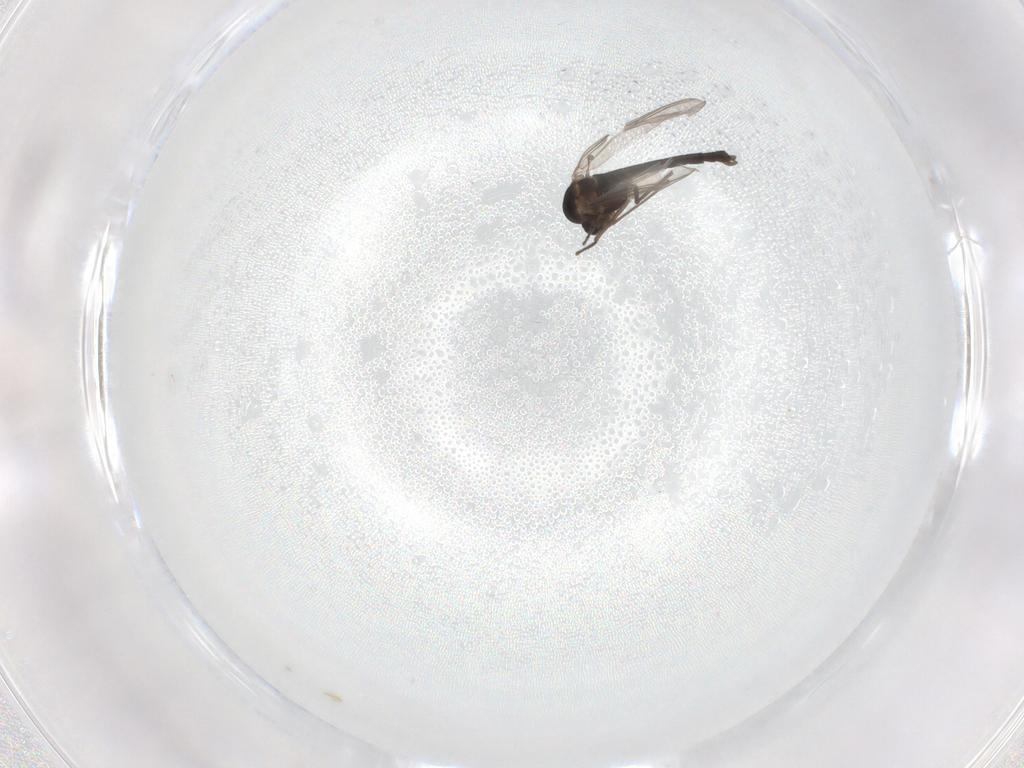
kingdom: Animalia
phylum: Arthropoda
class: Insecta
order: Diptera
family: Chironomidae
